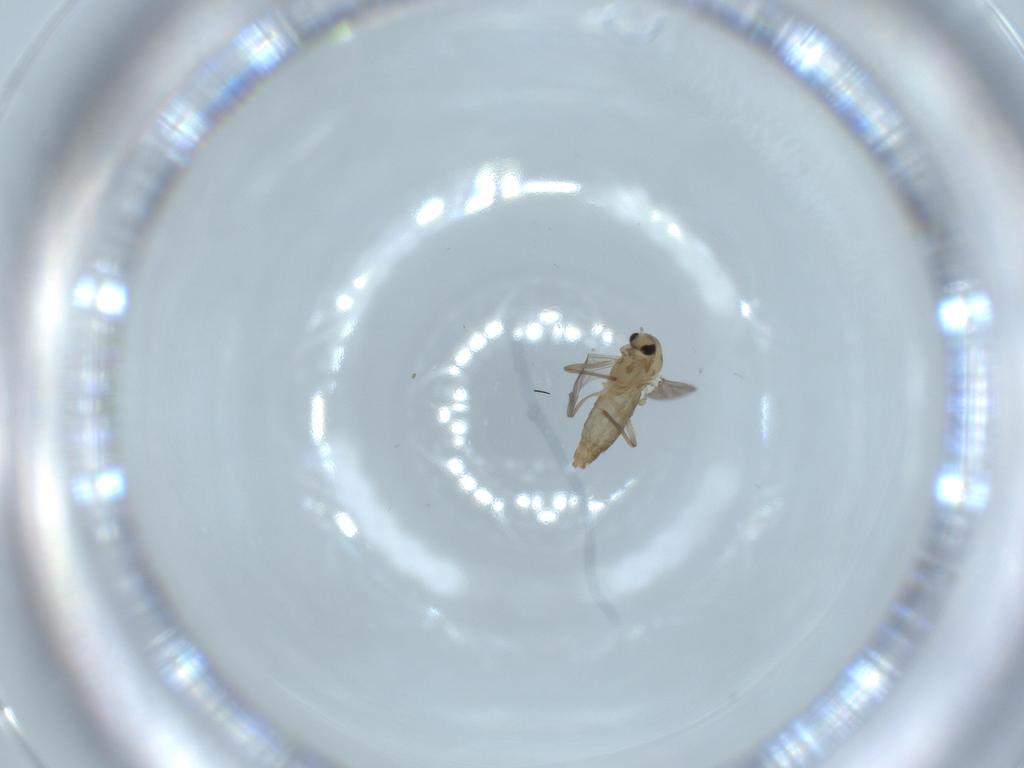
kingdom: Animalia
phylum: Arthropoda
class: Insecta
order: Diptera
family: Chironomidae
